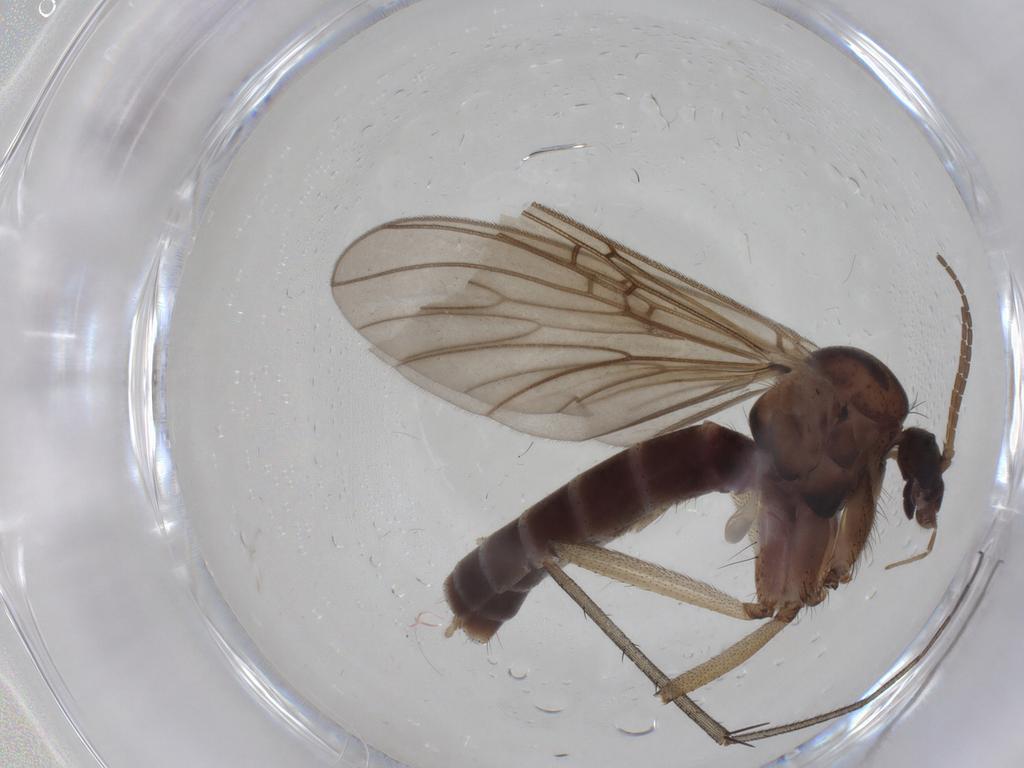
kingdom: Animalia
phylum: Arthropoda
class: Insecta
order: Diptera
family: Mycetophilidae
